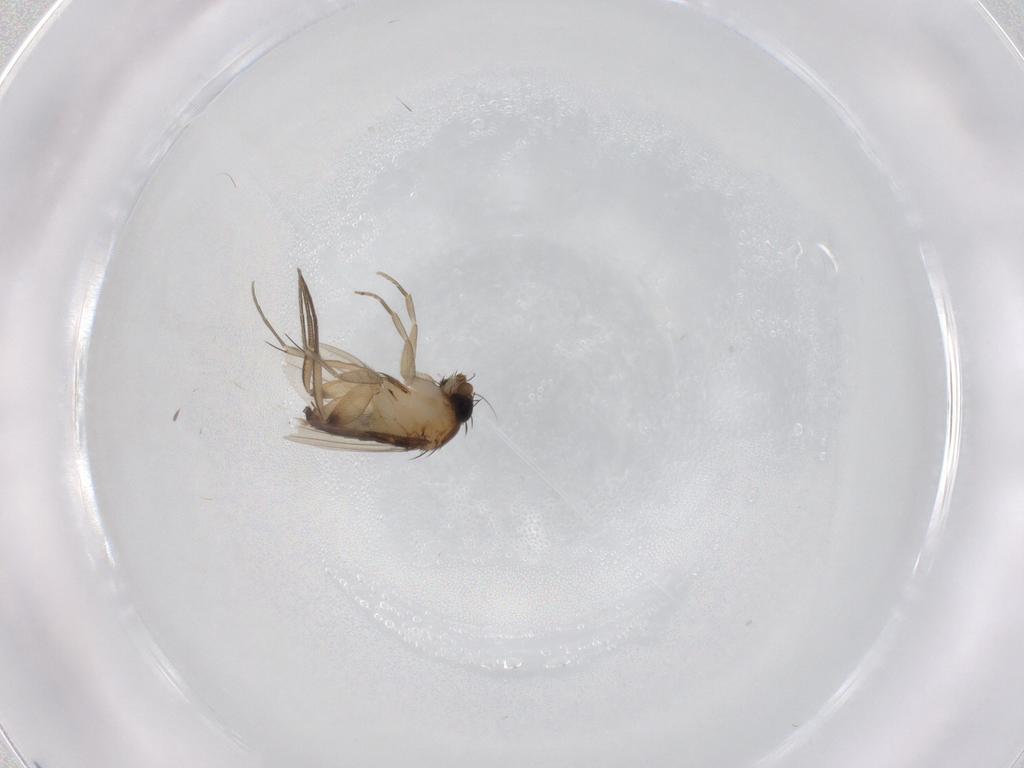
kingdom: Animalia
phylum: Arthropoda
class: Insecta
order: Diptera
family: Phoridae
